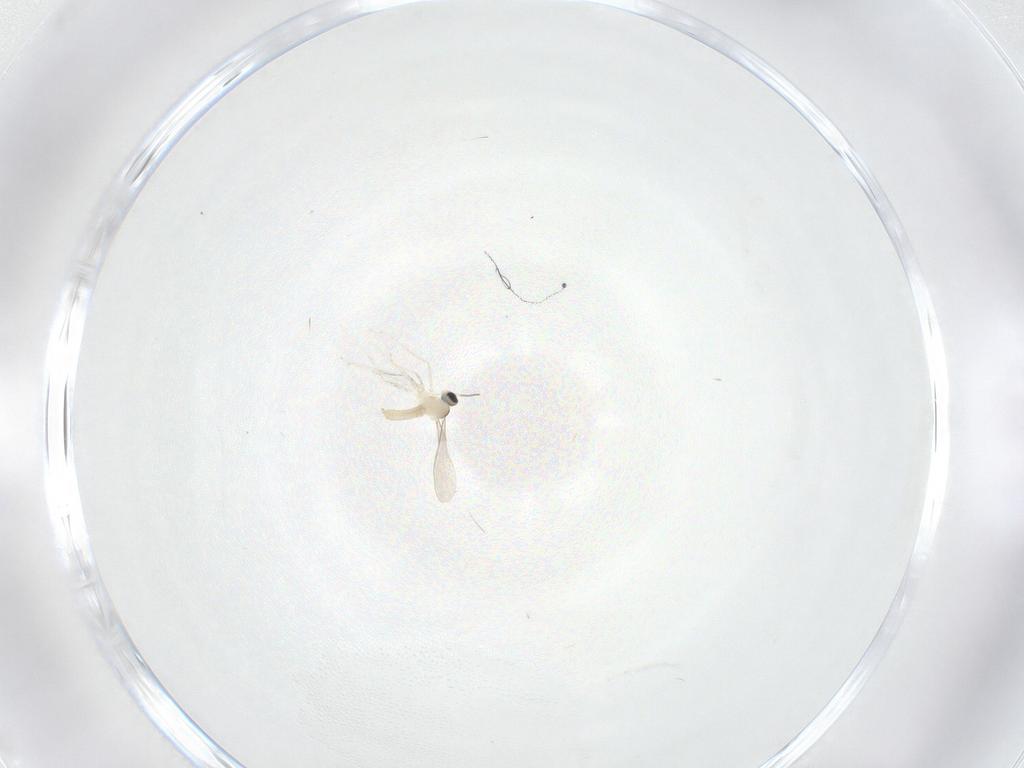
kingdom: Animalia
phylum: Arthropoda
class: Insecta
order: Diptera
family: Cecidomyiidae
